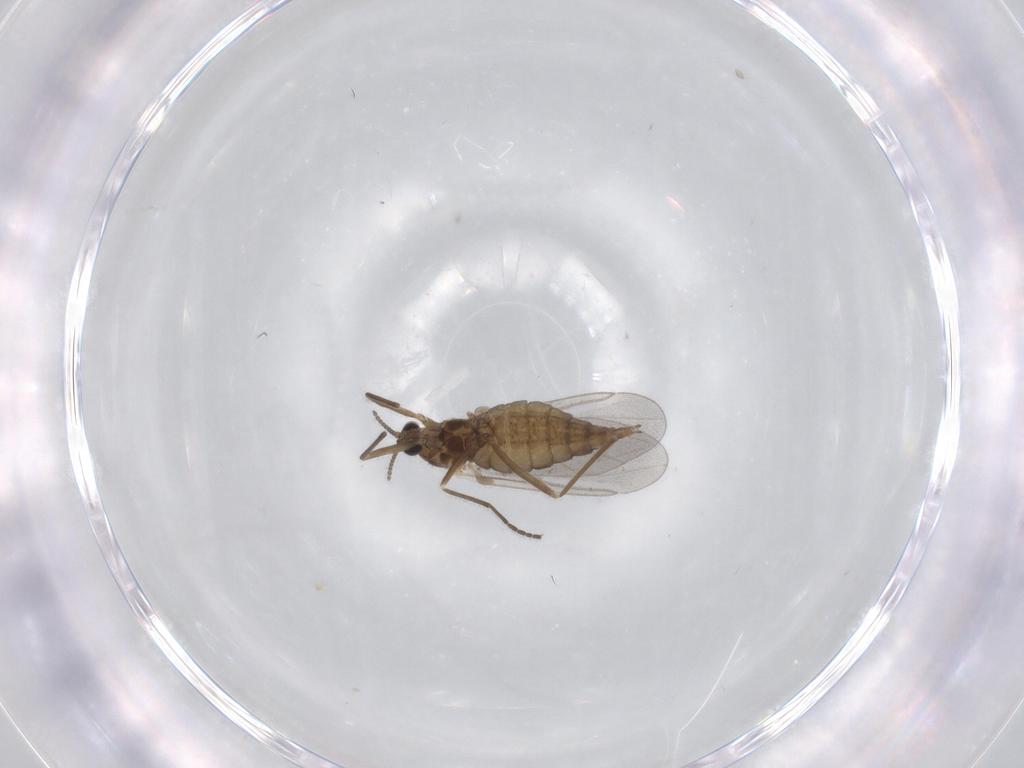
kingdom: Animalia
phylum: Arthropoda
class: Insecta
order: Diptera
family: Cecidomyiidae
